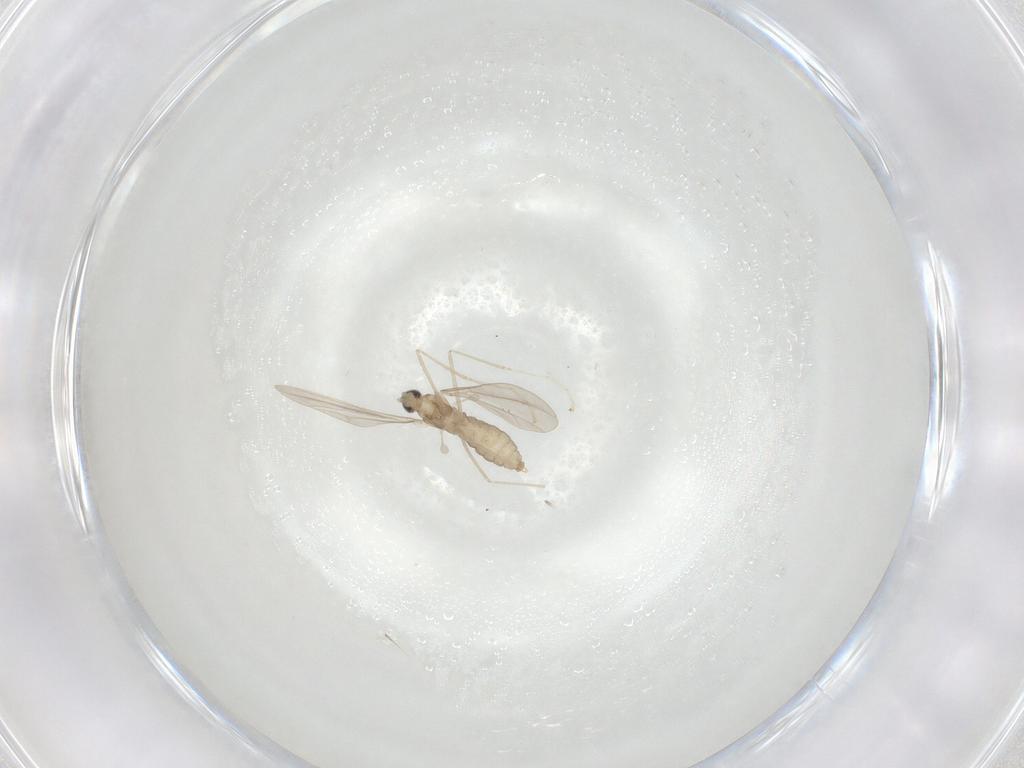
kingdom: Animalia
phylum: Arthropoda
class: Insecta
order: Diptera
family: Cecidomyiidae
